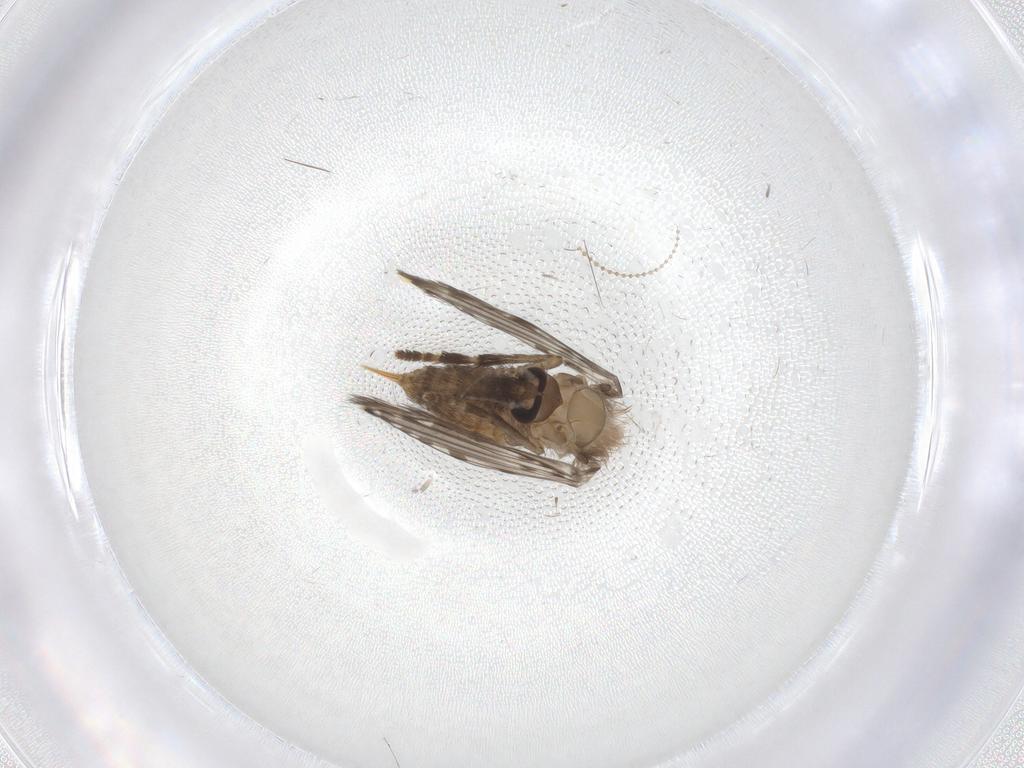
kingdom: Animalia
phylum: Arthropoda
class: Insecta
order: Diptera
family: Psychodidae
